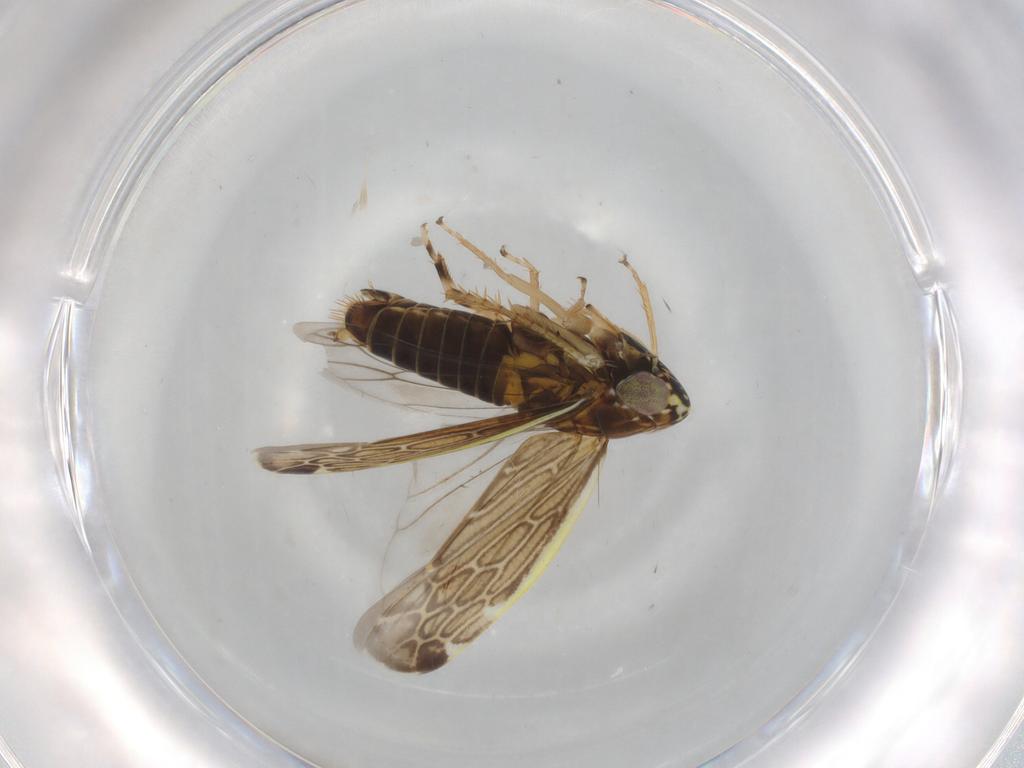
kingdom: Animalia
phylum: Arthropoda
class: Insecta
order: Hemiptera
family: Cicadellidae
